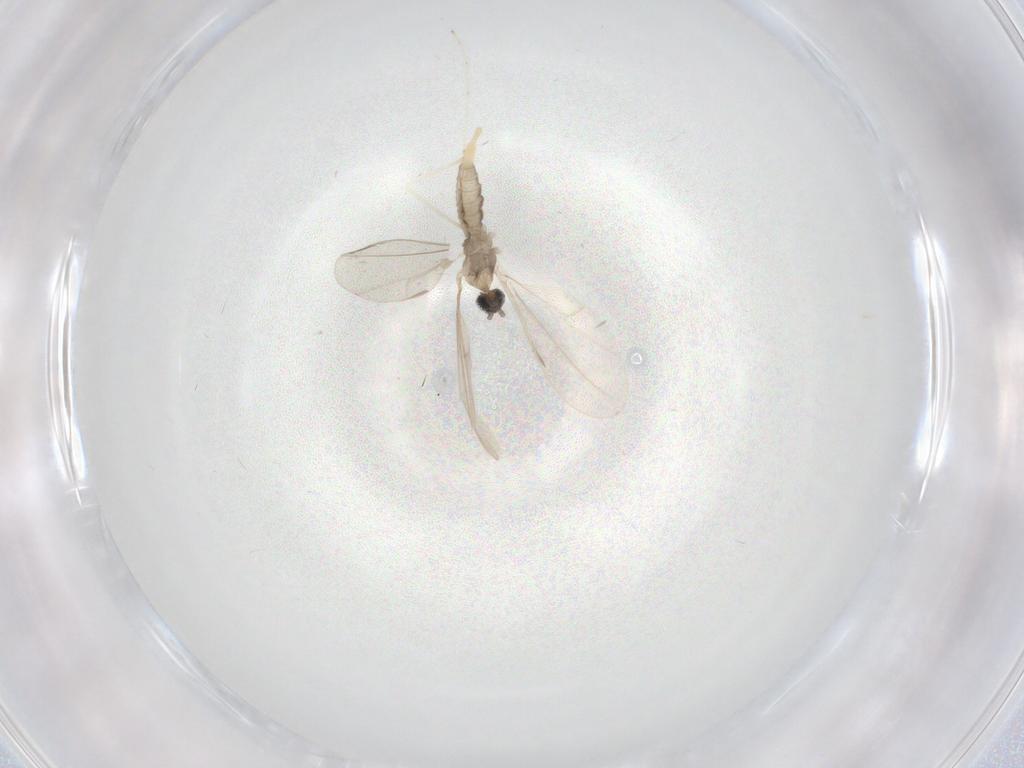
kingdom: Animalia
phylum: Arthropoda
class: Insecta
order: Diptera
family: Cecidomyiidae
